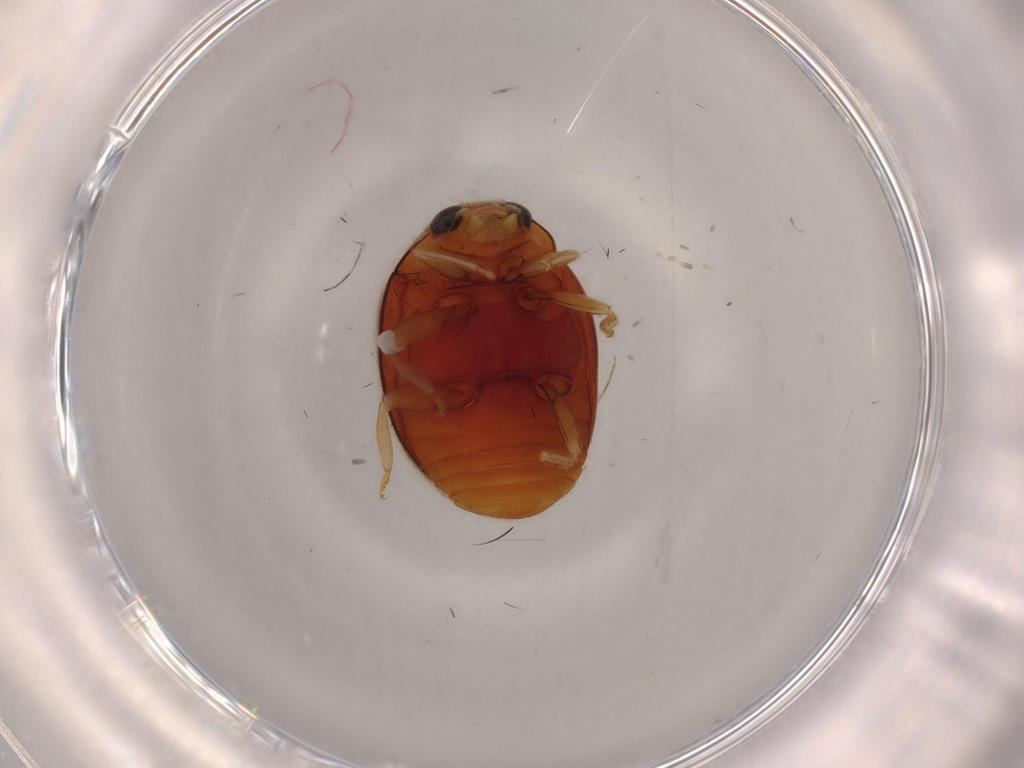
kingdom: Animalia
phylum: Arthropoda
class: Insecta
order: Coleoptera
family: Coccinellidae
